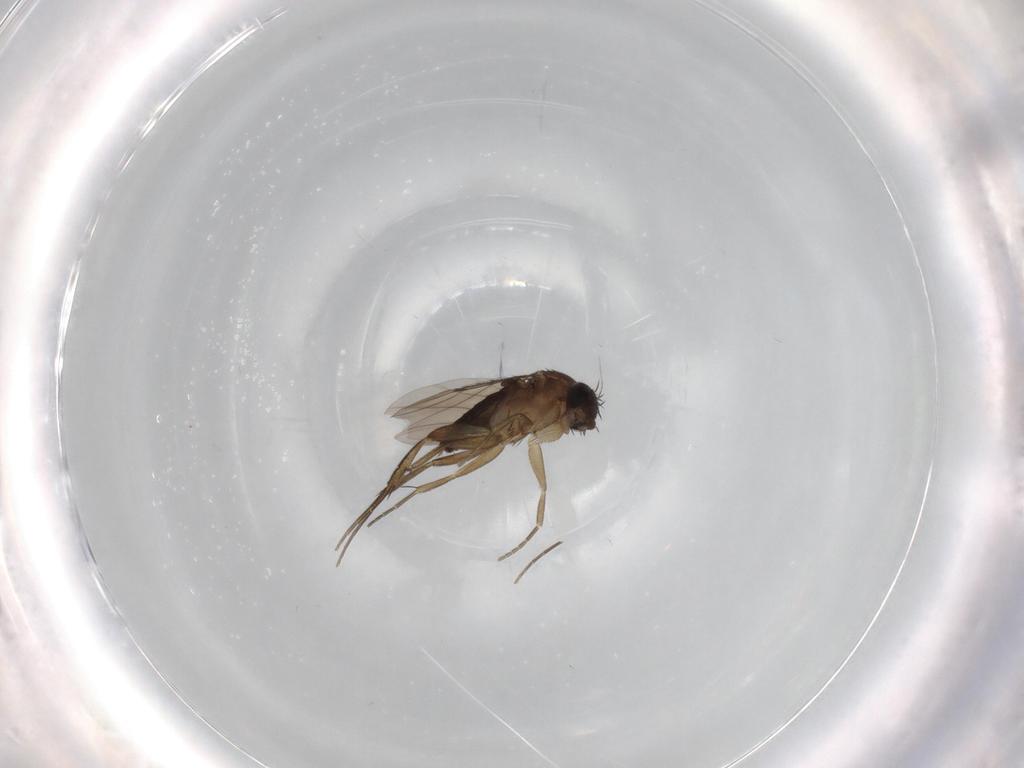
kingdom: Animalia
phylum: Arthropoda
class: Insecta
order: Diptera
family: Phoridae
